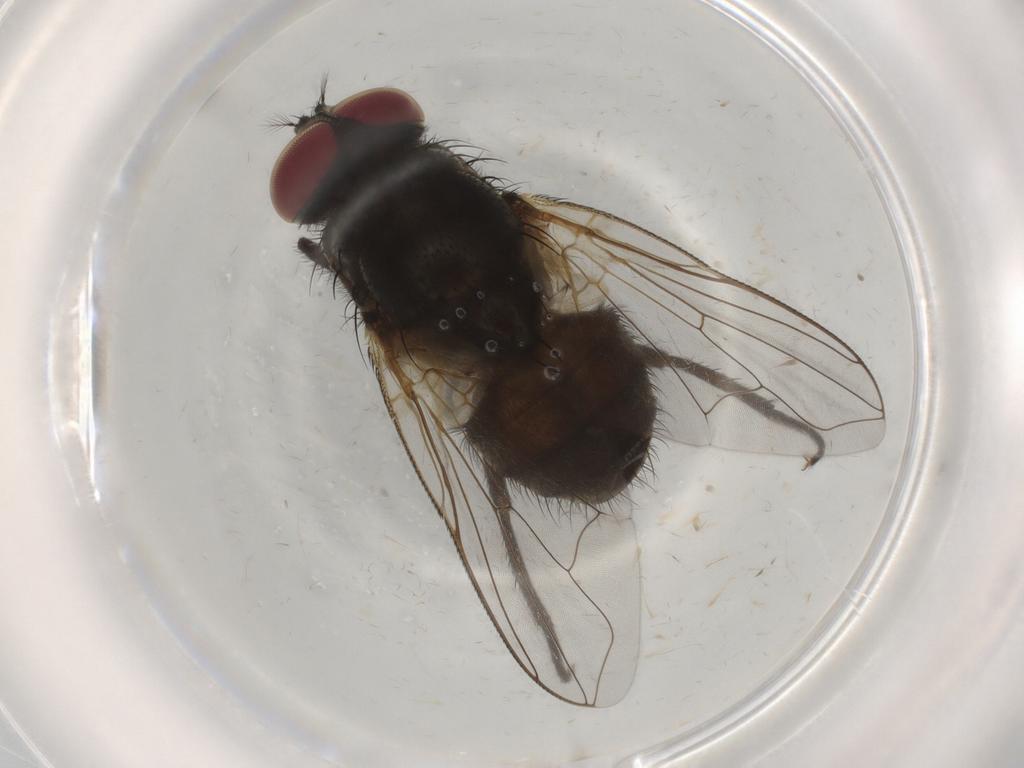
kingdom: Animalia
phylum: Arthropoda
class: Insecta
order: Diptera
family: Muscidae
